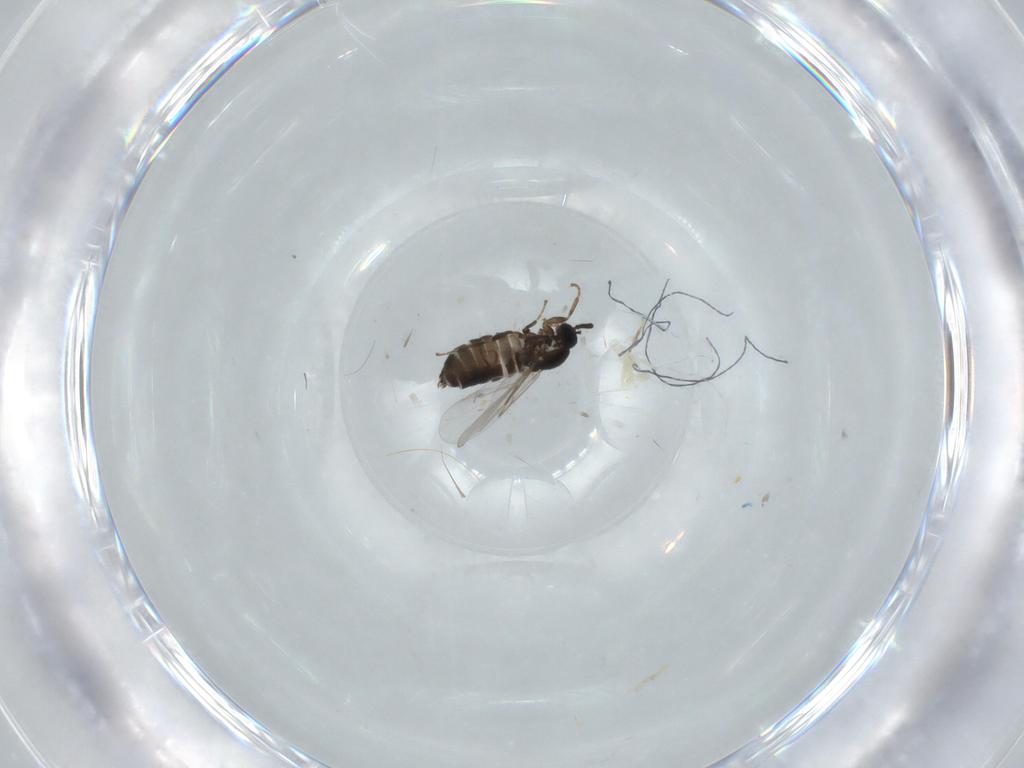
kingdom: Animalia
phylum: Arthropoda
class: Insecta
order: Diptera
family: Scatopsidae
